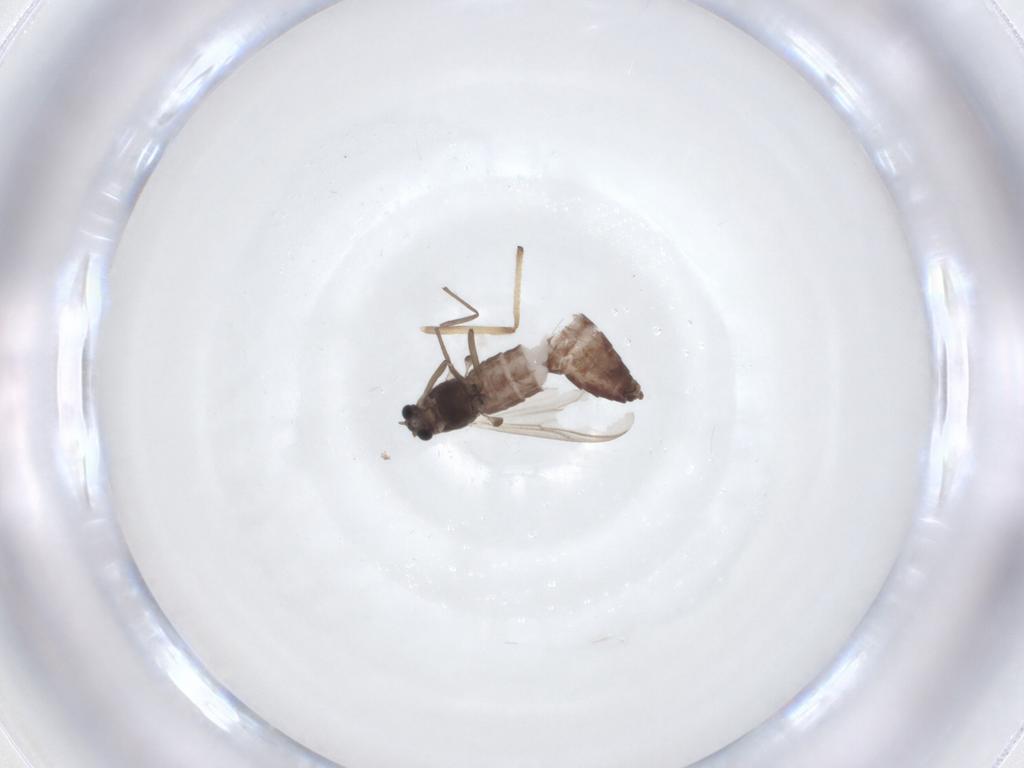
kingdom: Animalia
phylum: Arthropoda
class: Insecta
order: Diptera
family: Chironomidae
